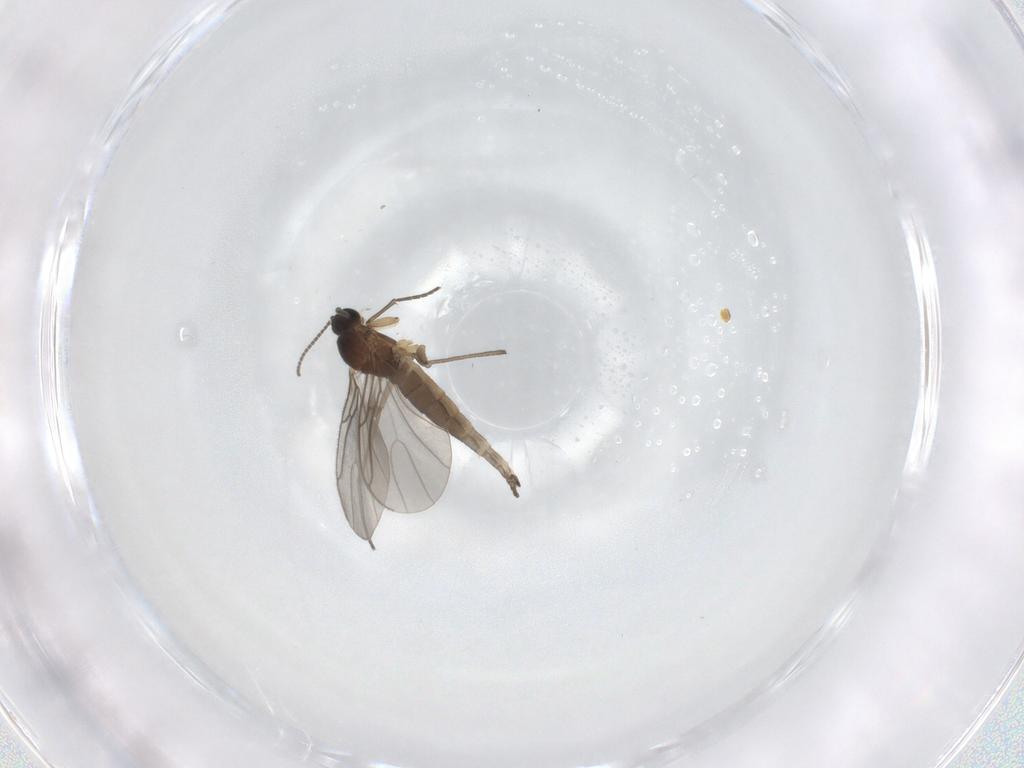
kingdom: Animalia
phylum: Arthropoda
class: Insecta
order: Diptera
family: Sciaridae
